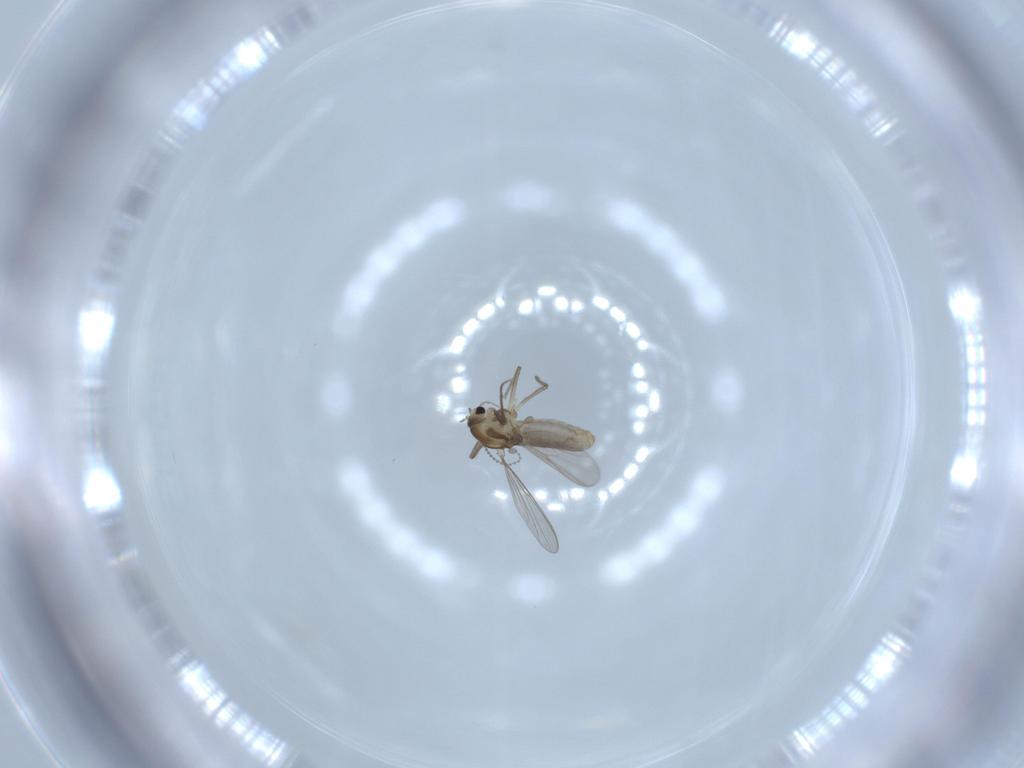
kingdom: Animalia
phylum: Arthropoda
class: Insecta
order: Diptera
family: Chironomidae
